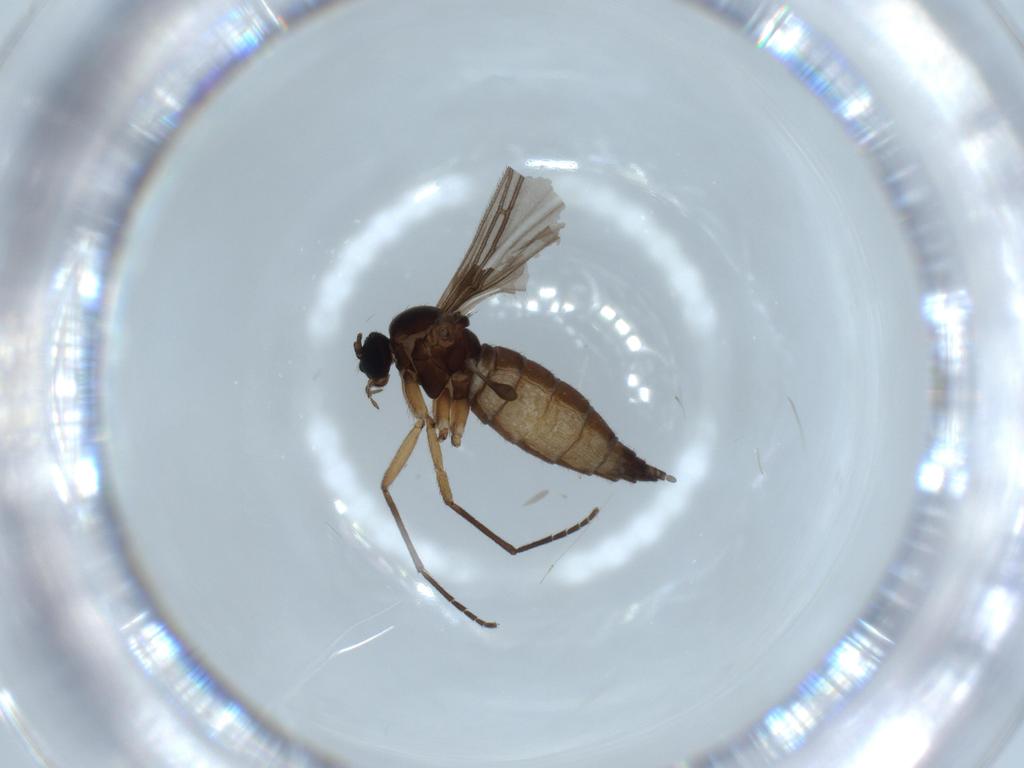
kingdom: Animalia
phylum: Arthropoda
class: Insecta
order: Diptera
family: Sciaridae
